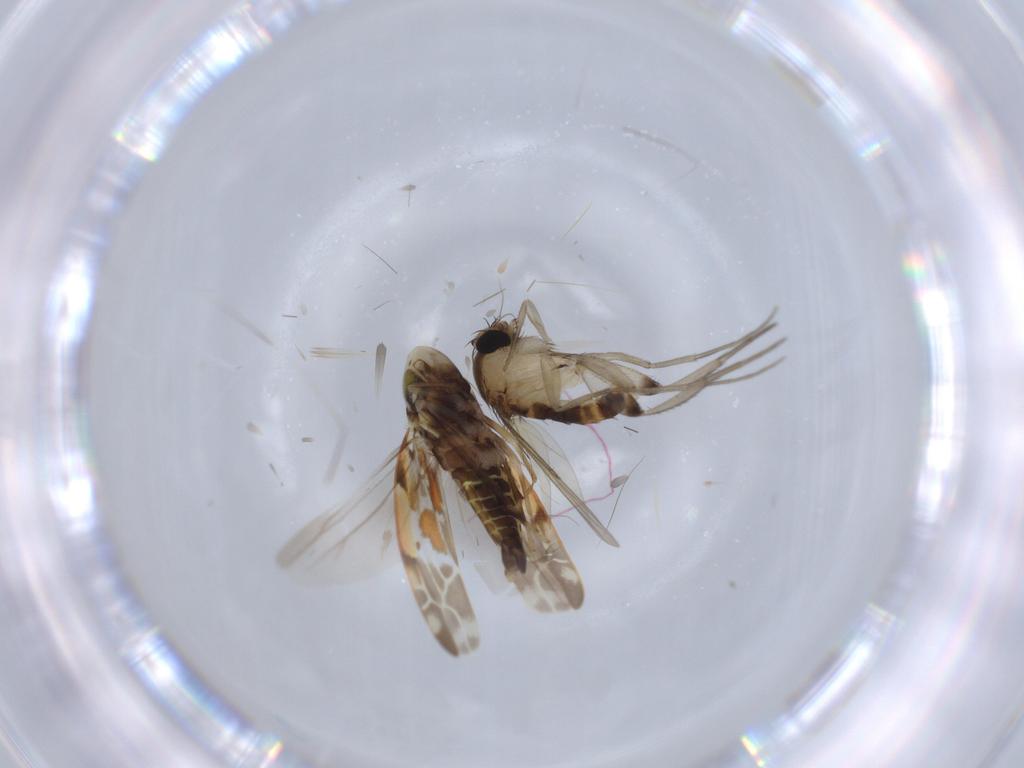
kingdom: Animalia
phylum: Arthropoda
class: Insecta
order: Hemiptera
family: Cicadellidae
